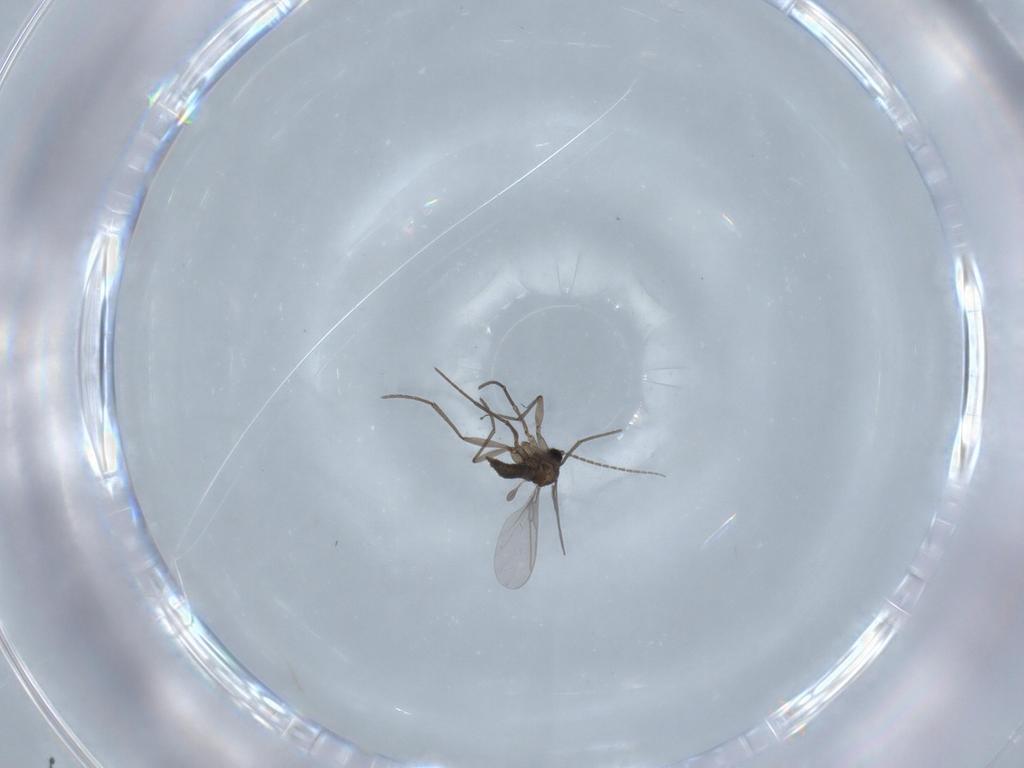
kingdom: Animalia
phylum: Arthropoda
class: Insecta
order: Diptera
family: Sciaridae
